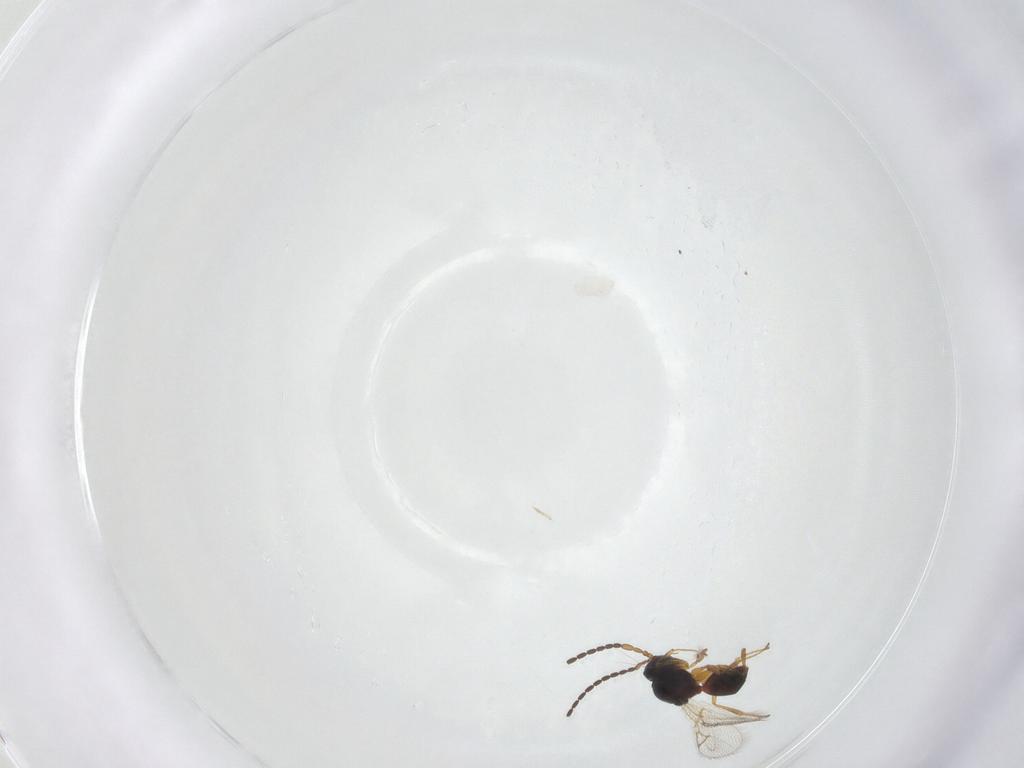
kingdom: Animalia
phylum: Arthropoda
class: Insecta
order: Hymenoptera
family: Figitidae
